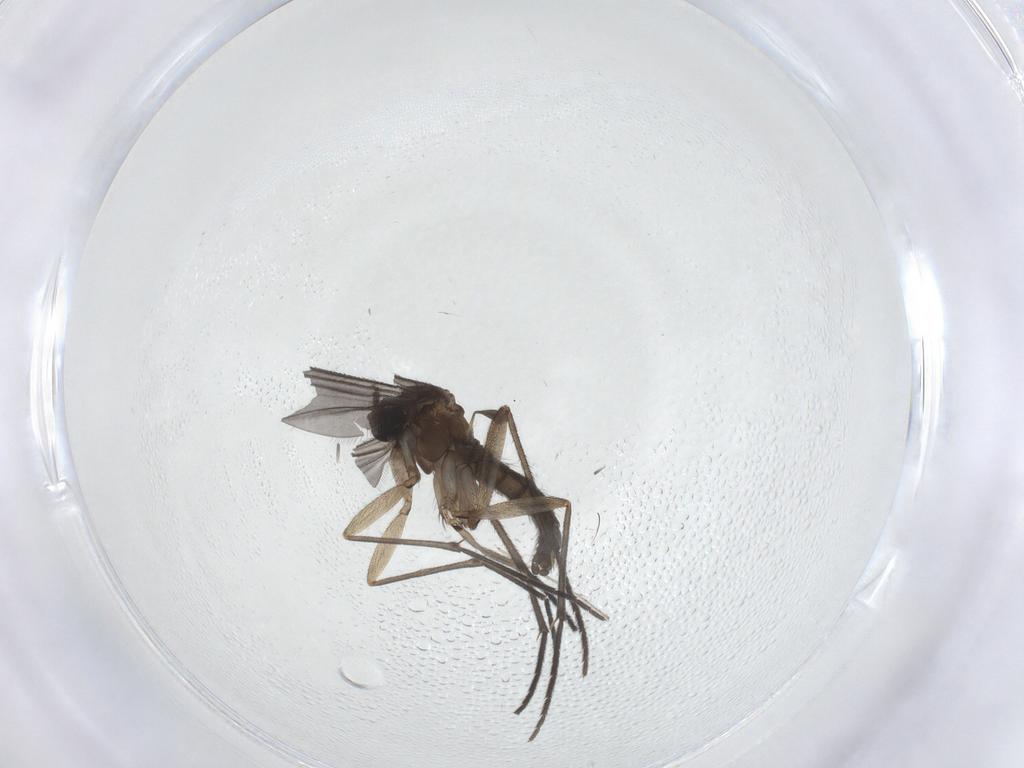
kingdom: Animalia
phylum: Arthropoda
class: Insecta
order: Diptera
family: Sciaridae
